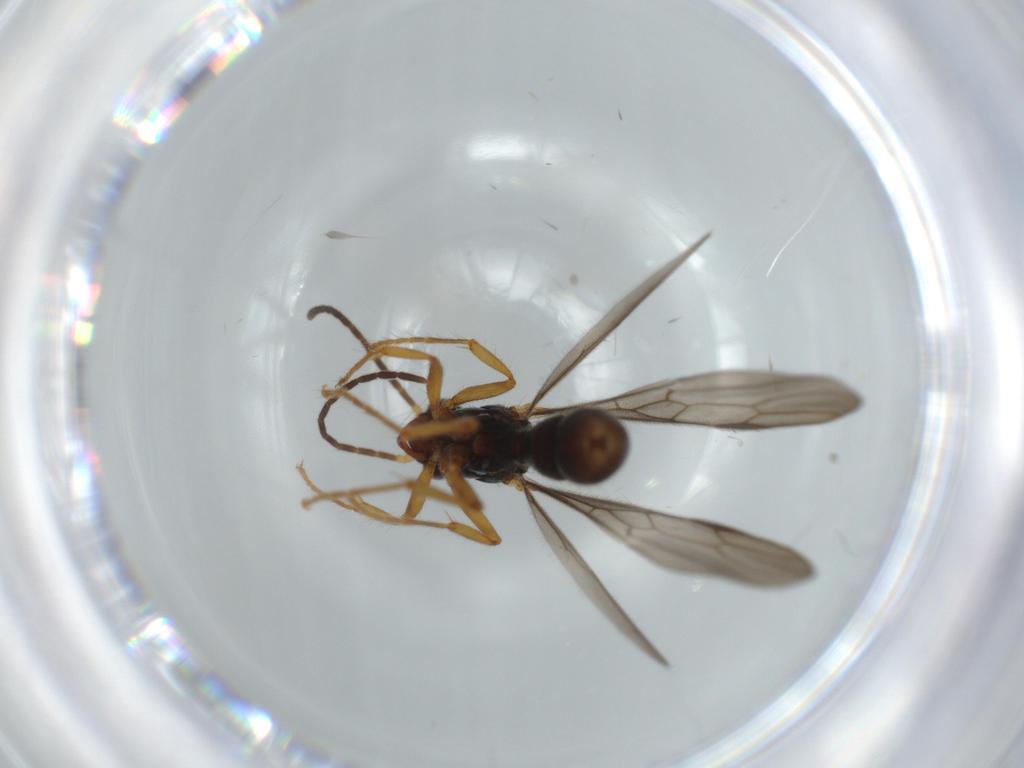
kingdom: Animalia
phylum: Arthropoda
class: Insecta
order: Hymenoptera
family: Formicidae
